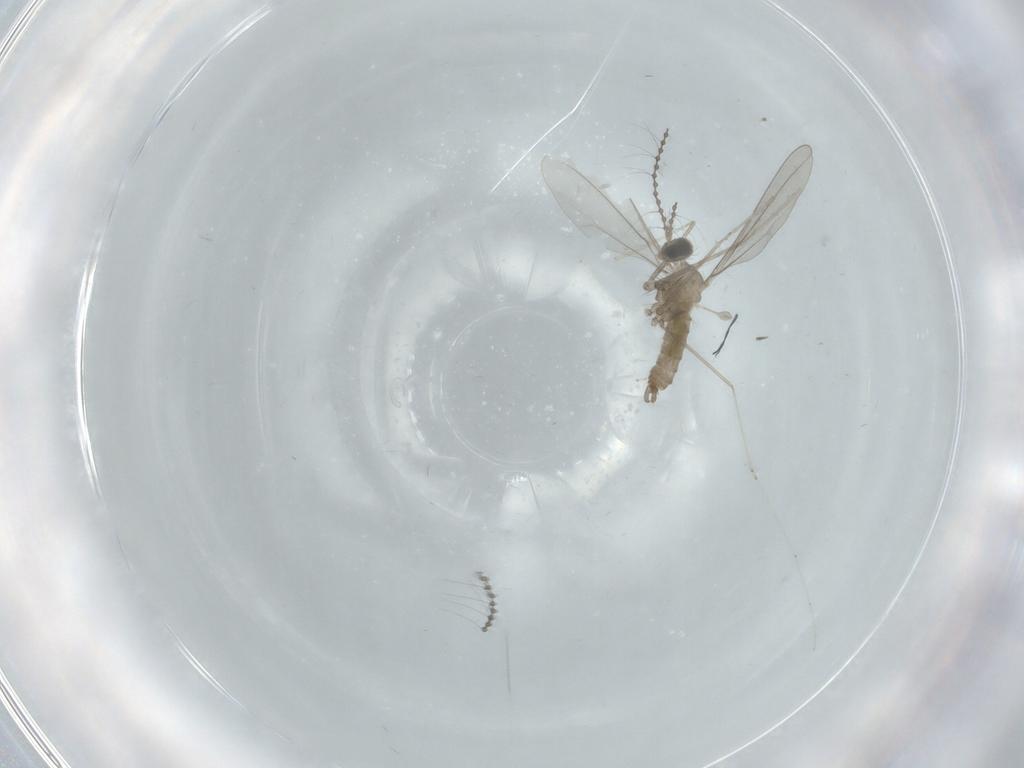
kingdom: Animalia
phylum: Arthropoda
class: Insecta
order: Diptera
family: Cecidomyiidae
